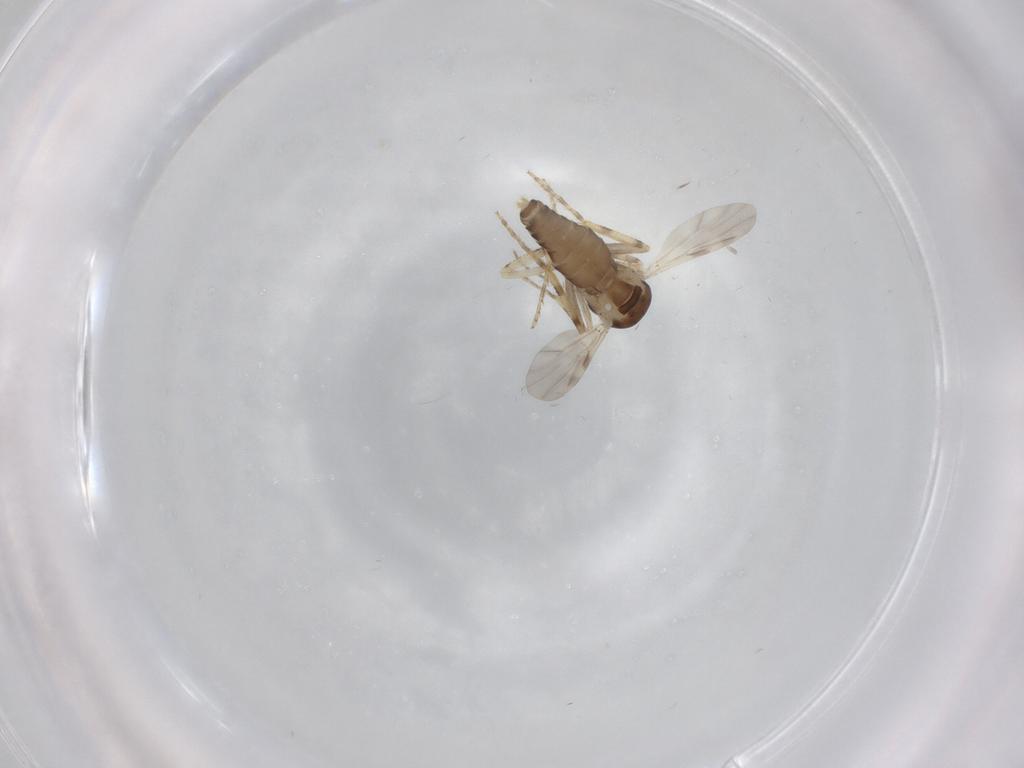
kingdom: Animalia
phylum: Arthropoda
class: Insecta
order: Diptera
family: Ceratopogonidae
